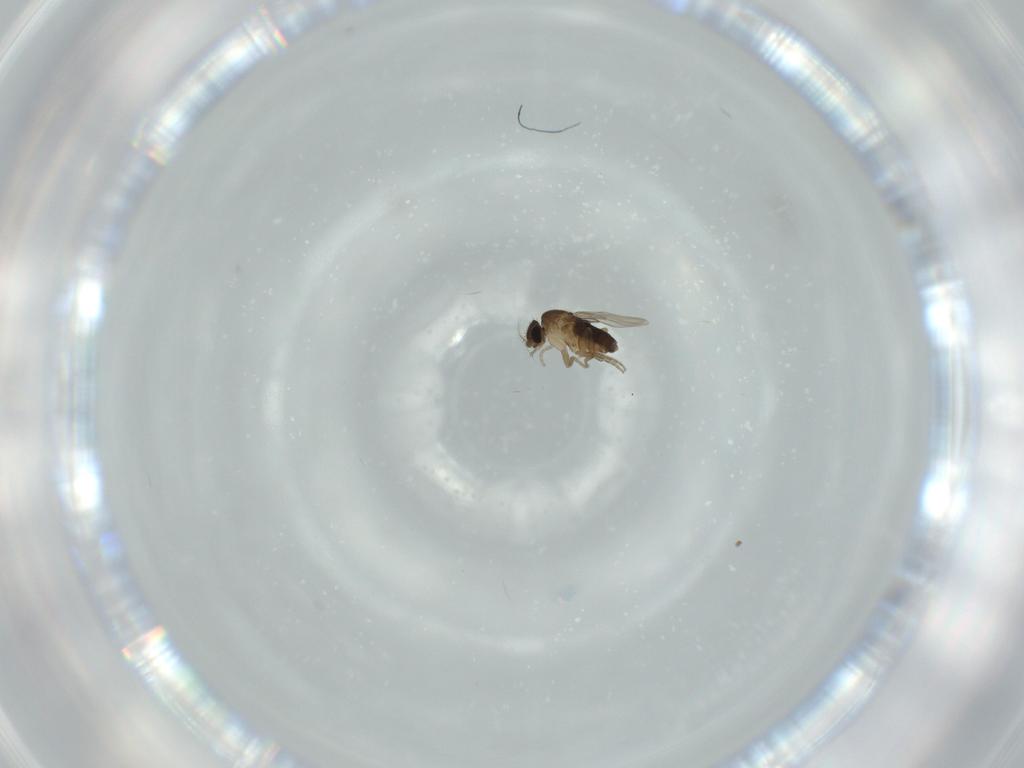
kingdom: Animalia
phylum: Arthropoda
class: Insecta
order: Diptera
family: Phoridae
